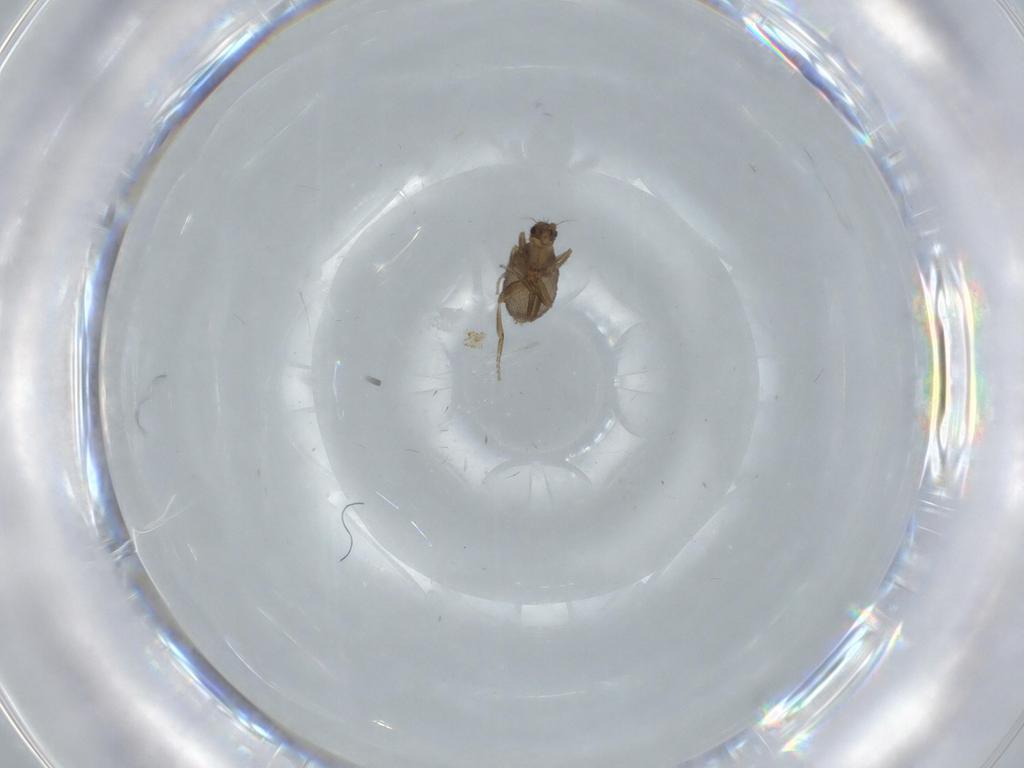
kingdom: Animalia
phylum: Arthropoda
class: Insecta
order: Diptera
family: Phoridae
